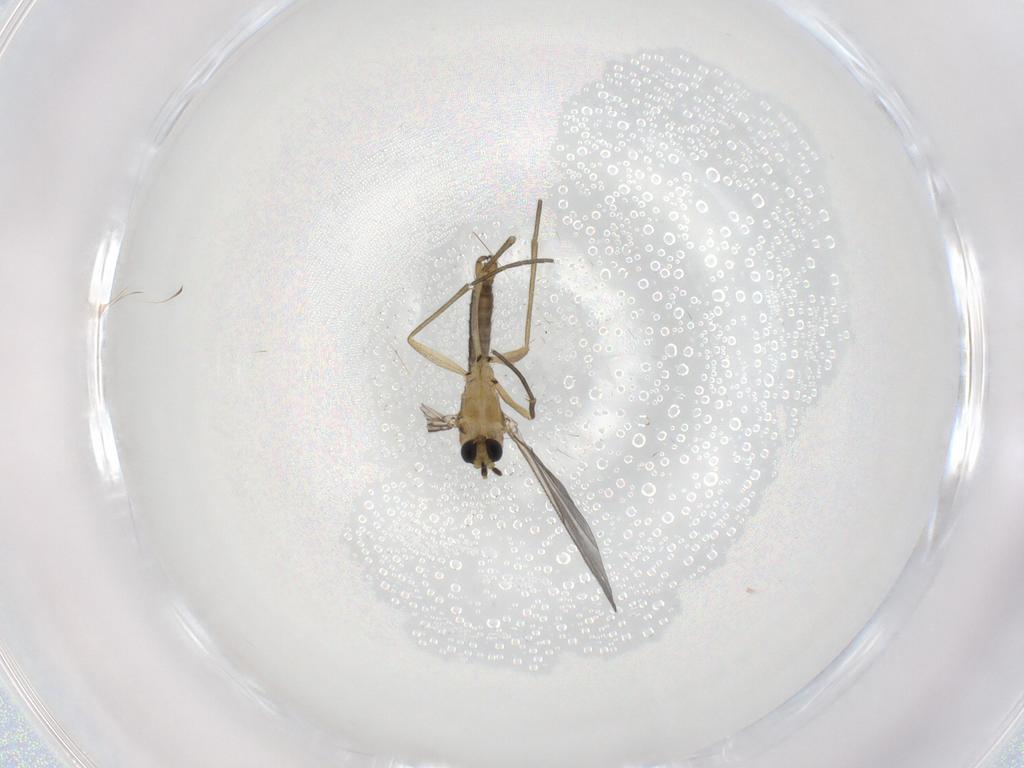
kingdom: Animalia
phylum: Arthropoda
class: Insecta
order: Diptera
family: Sciaridae
